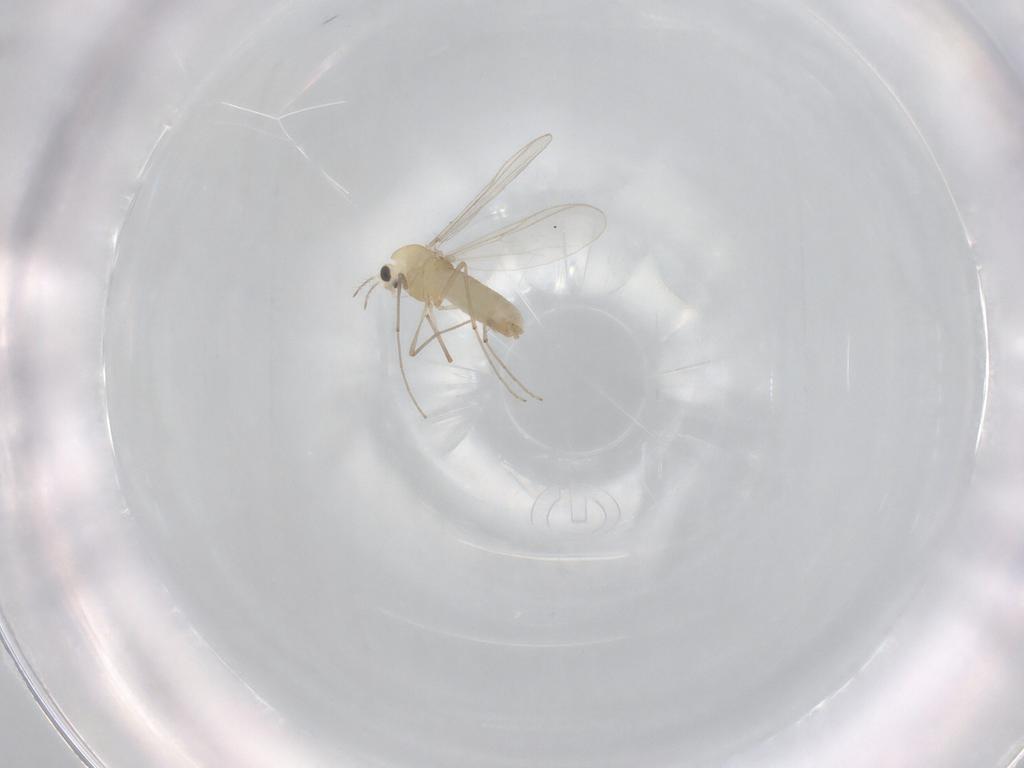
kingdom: Animalia
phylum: Arthropoda
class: Insecta
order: Diptera
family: Chironomidae
